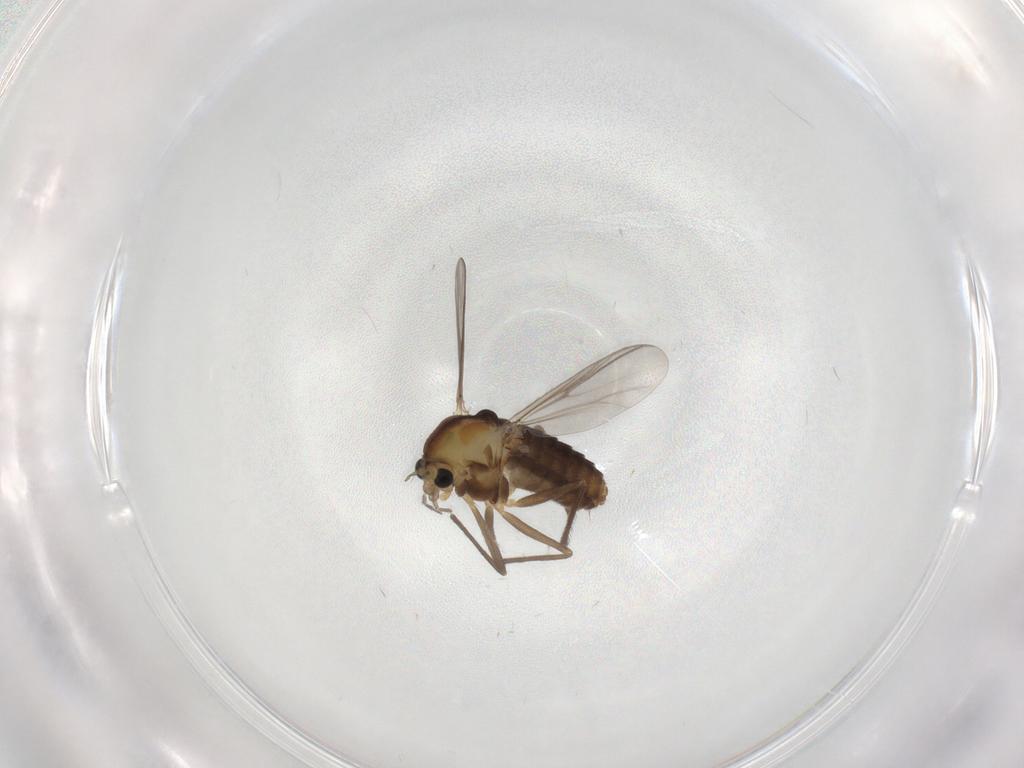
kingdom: Animalia
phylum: Arthropoda
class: Insecta
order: Diptera
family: Chironomidae
